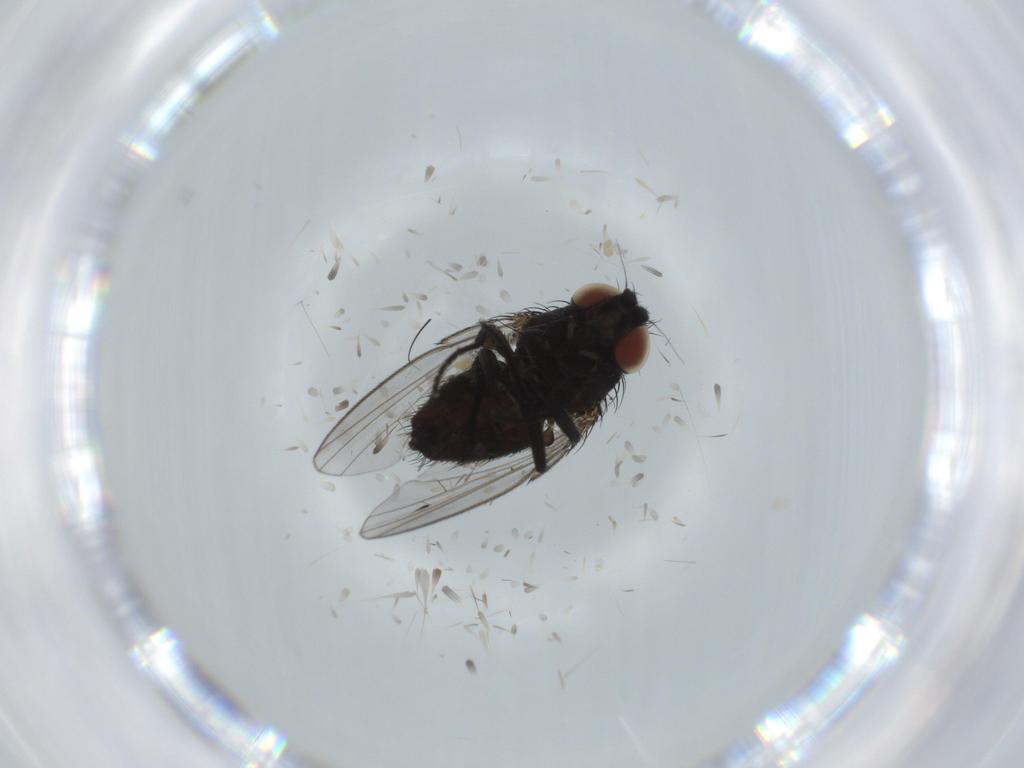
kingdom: Animalia
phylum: Arthropoda
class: Insecta
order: Diptera
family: Milichiidae
